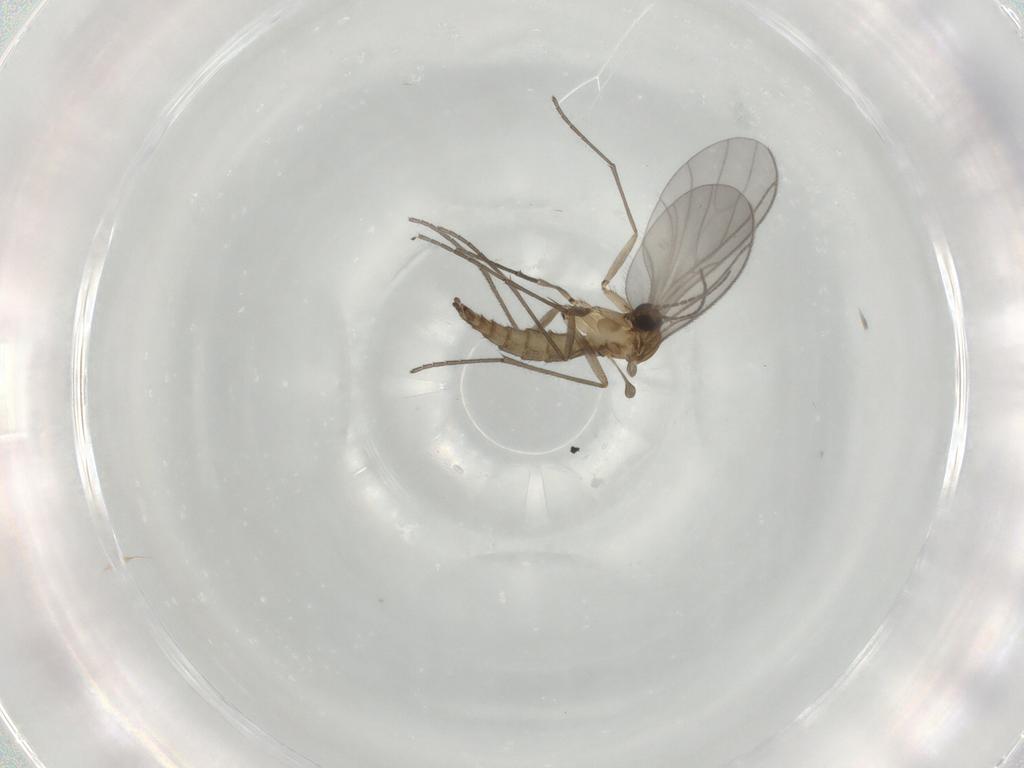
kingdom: Animalia
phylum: Arthropoda
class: Insecta
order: Diptera
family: Sciaridae
